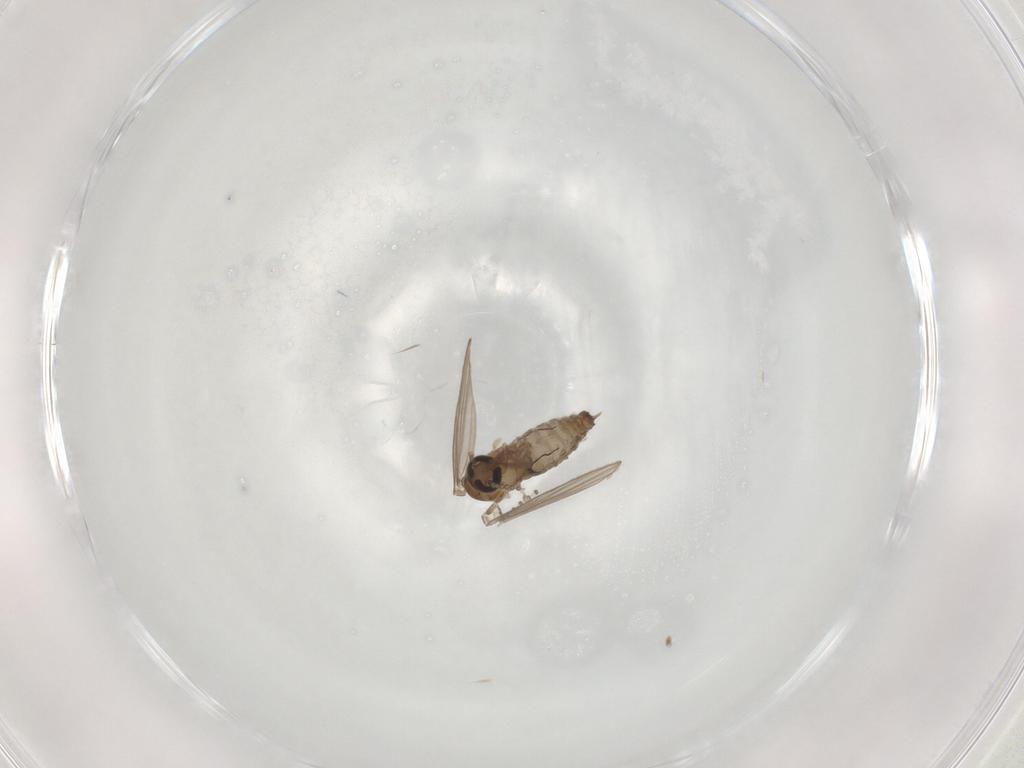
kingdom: Animalia
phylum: Arthropoda
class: Insecta
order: Diptera
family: Psychodidae
